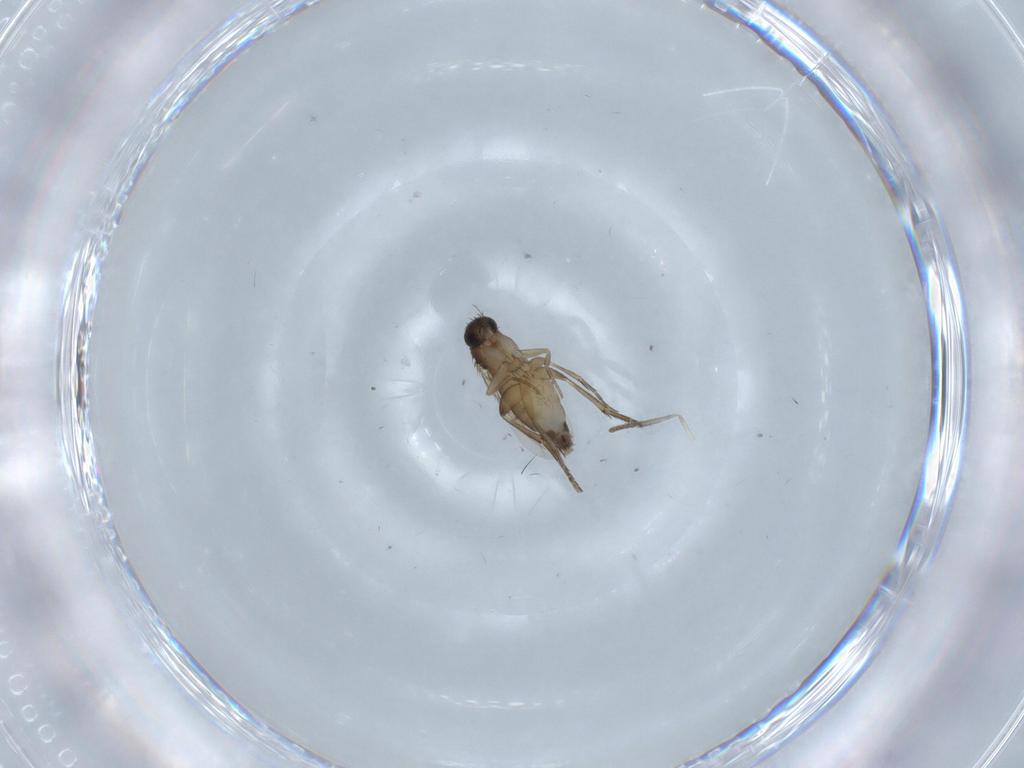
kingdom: Animalia
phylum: Arthropoda
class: Insecta
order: Diptera
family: Phoridae
